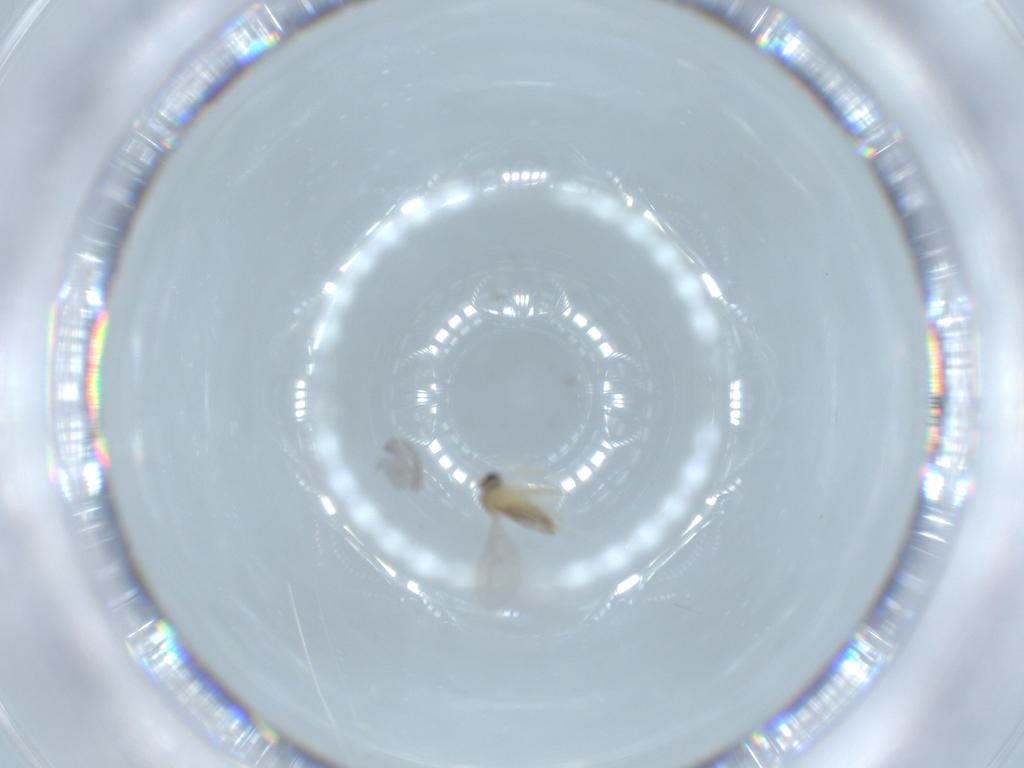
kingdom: Animalia
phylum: Arthropoda
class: Insecta
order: Diptera
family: Cecidomyiidae
